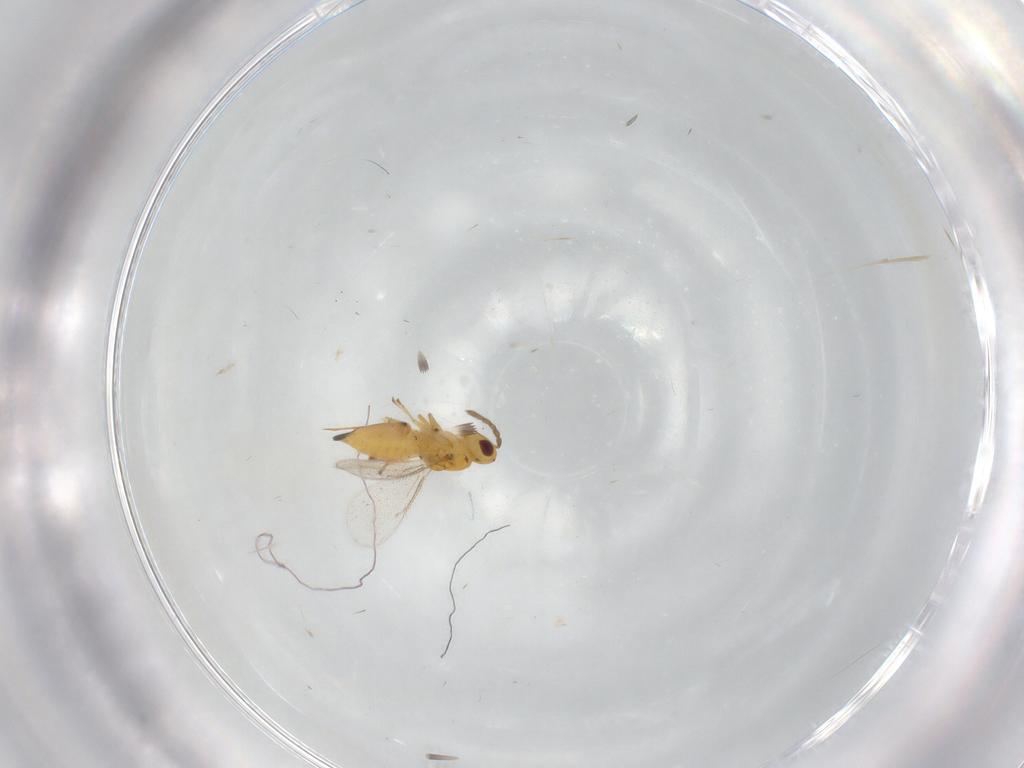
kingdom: Animalia
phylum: Arthropoda
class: Insecta
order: Hymenoptera
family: Eulophidae
